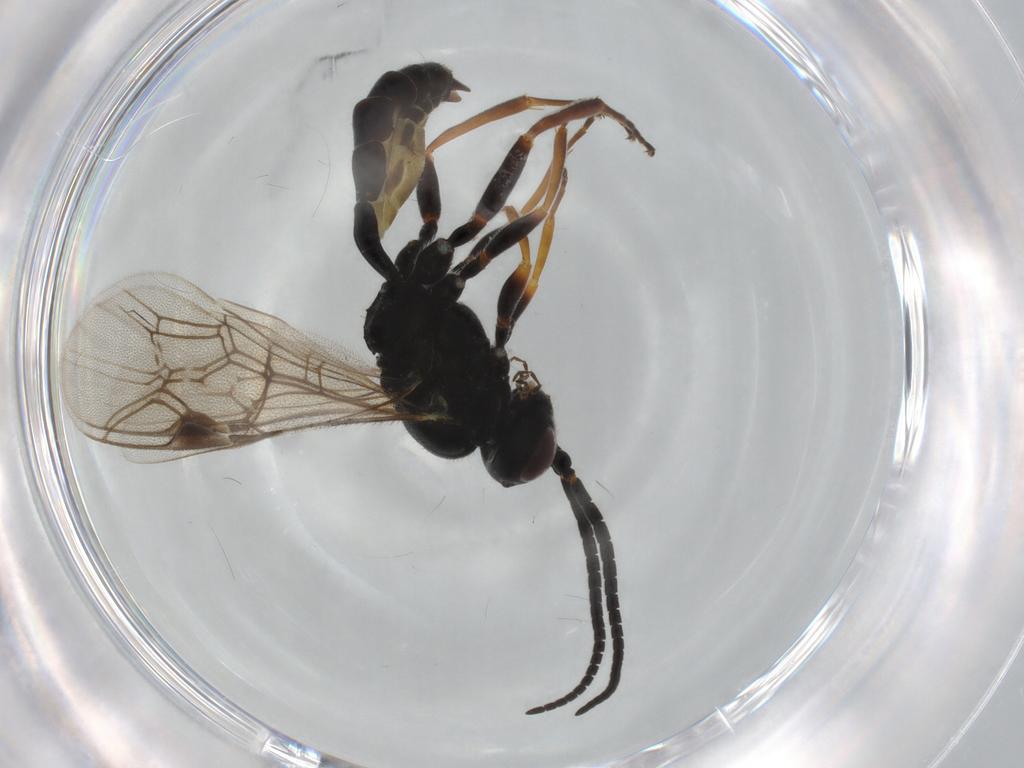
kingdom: Animalia
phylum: Arthropoda
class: Insecta
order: Hymenoptera
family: Ichneumonidae
